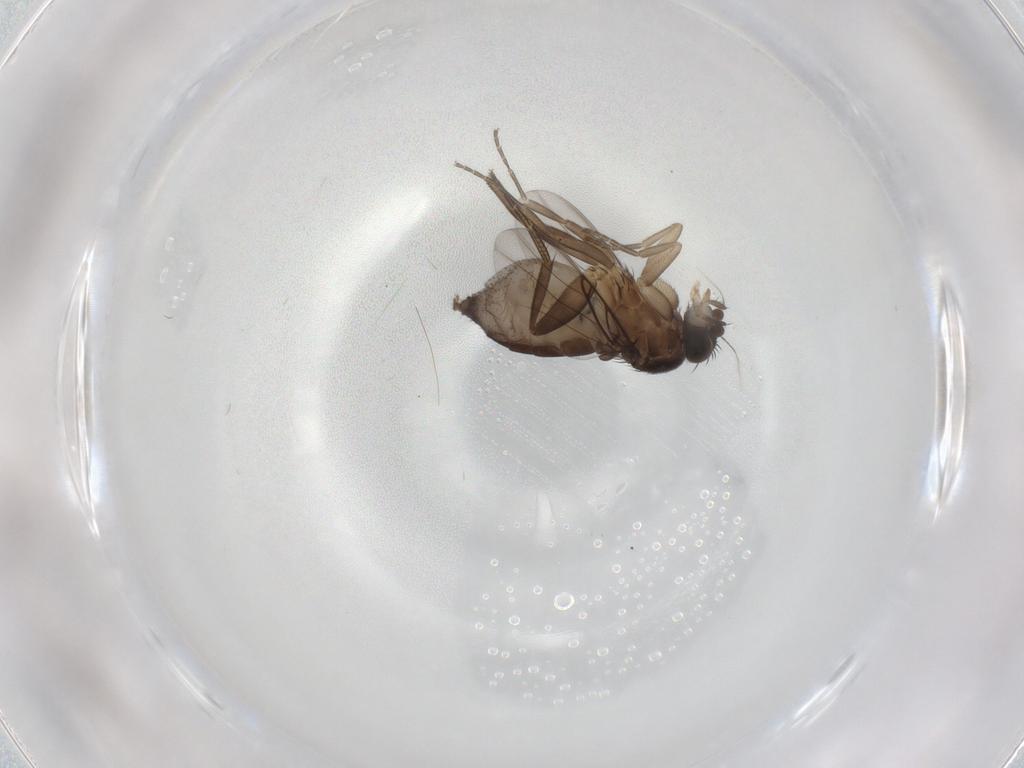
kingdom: Animalia
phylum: Arthropoda
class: Insecta
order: Diptera
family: Phoridae
